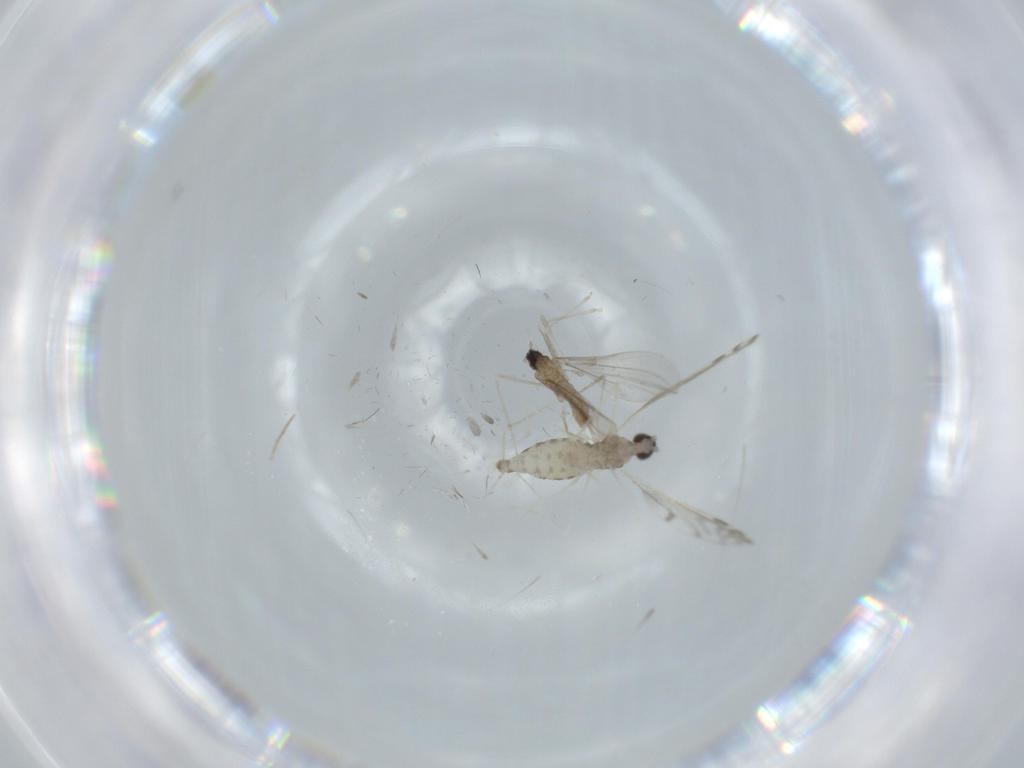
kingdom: Animalia
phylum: Arthropoda
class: Insecta
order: Diptera
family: Cecidomyiidae
